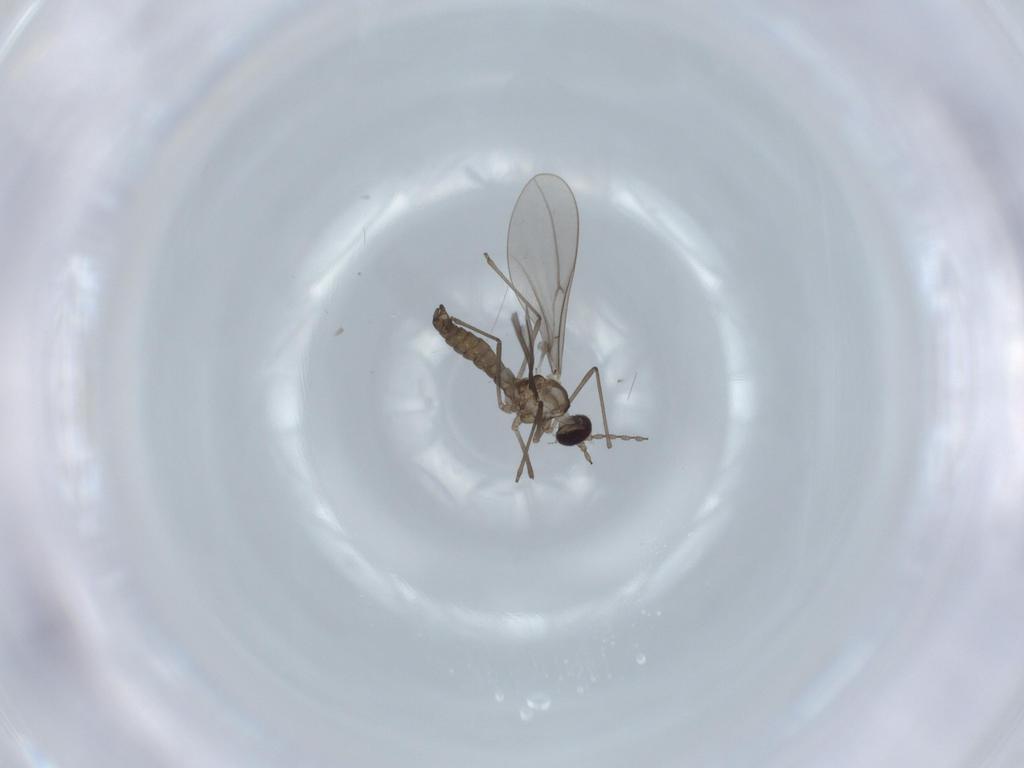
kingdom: Animalia
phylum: Arthropoda
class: Insecta
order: Diptera
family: Cecidomyiidae
